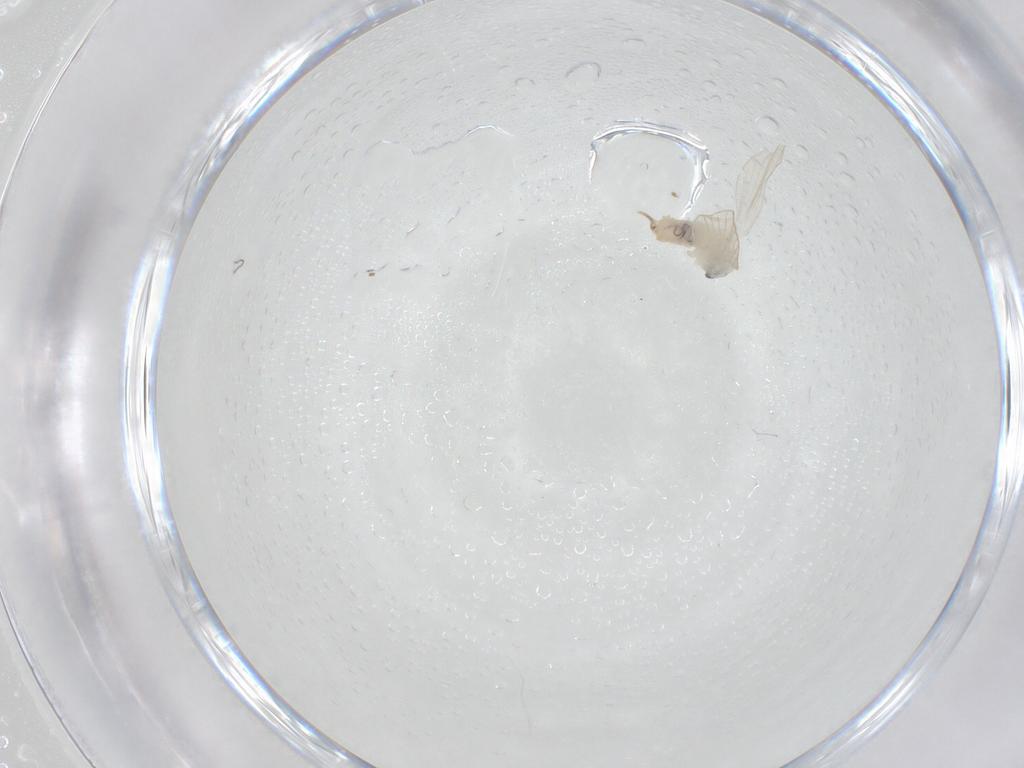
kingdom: Animalia
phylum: Arthropoda
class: Insecta
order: Diptera
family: Psychodidae
